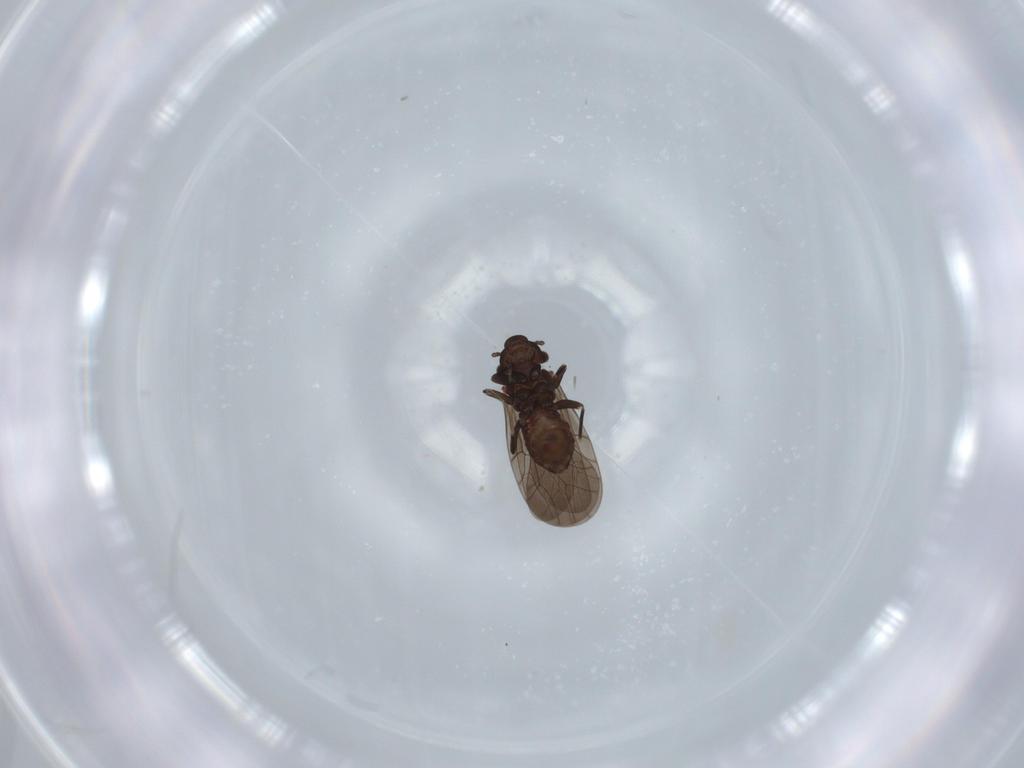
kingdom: Animalia
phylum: Arthropoda
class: Insecta
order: Psocodea
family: Lepidopsocidae
